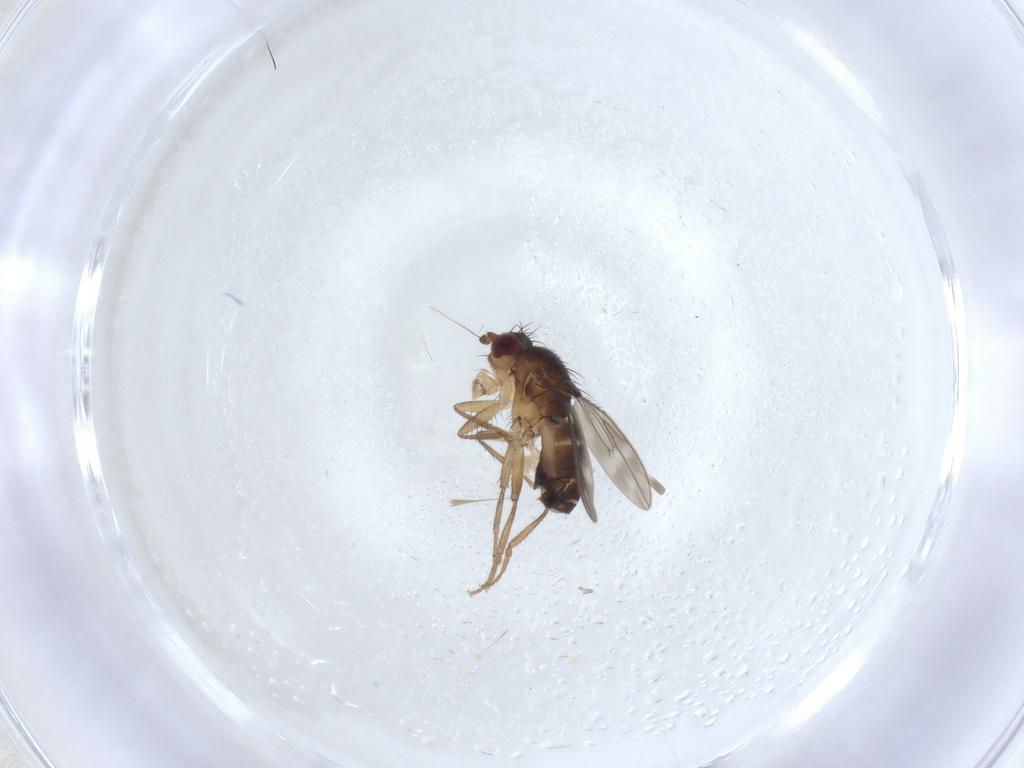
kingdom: Animalia
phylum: Arthropoda
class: Insecta
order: Diptera
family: Sphaeroceridae
